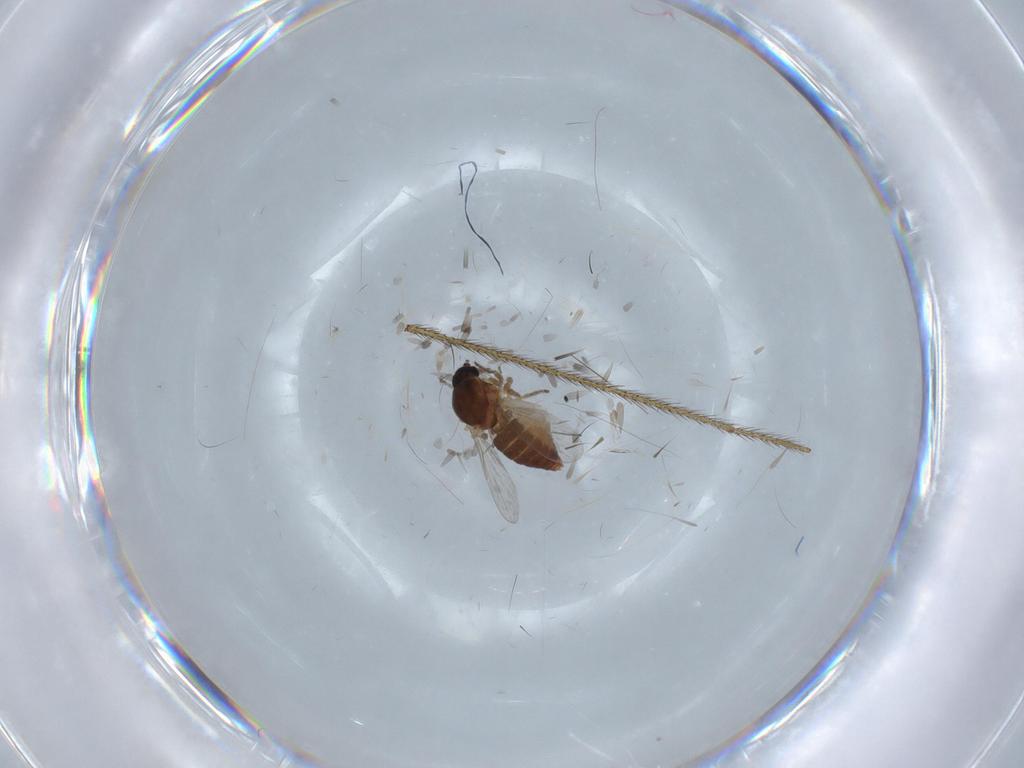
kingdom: Animalia
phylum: Arthropoda
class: Insecta
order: Diptera
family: Ceratopogonidae
